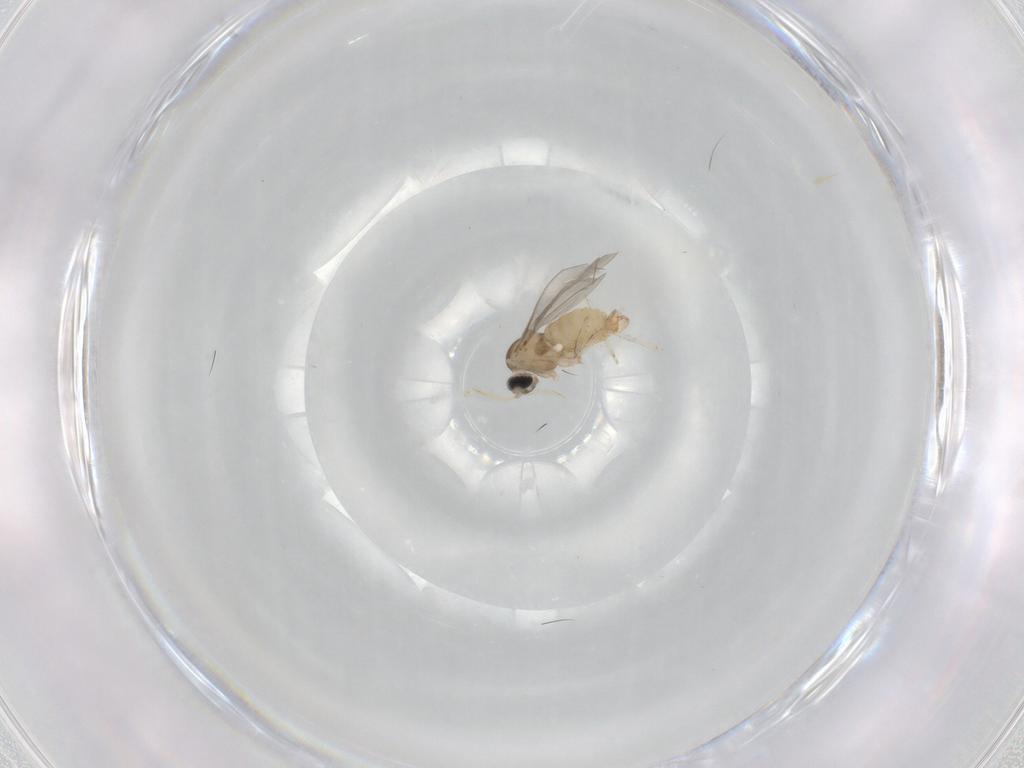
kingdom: Animalia
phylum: Arthropoda
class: Insecta
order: Diptera
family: Cecidomyiidae
